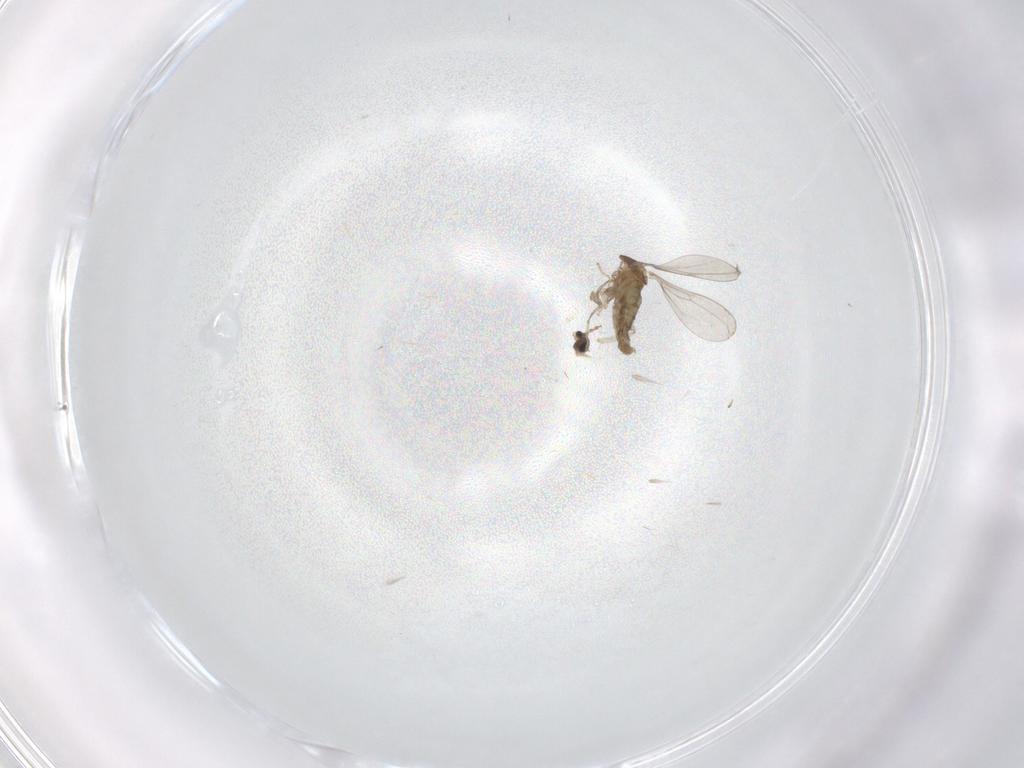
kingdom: Animalia
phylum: Arthropoda
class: Insecta
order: Diptera
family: Cecidomyiidae
